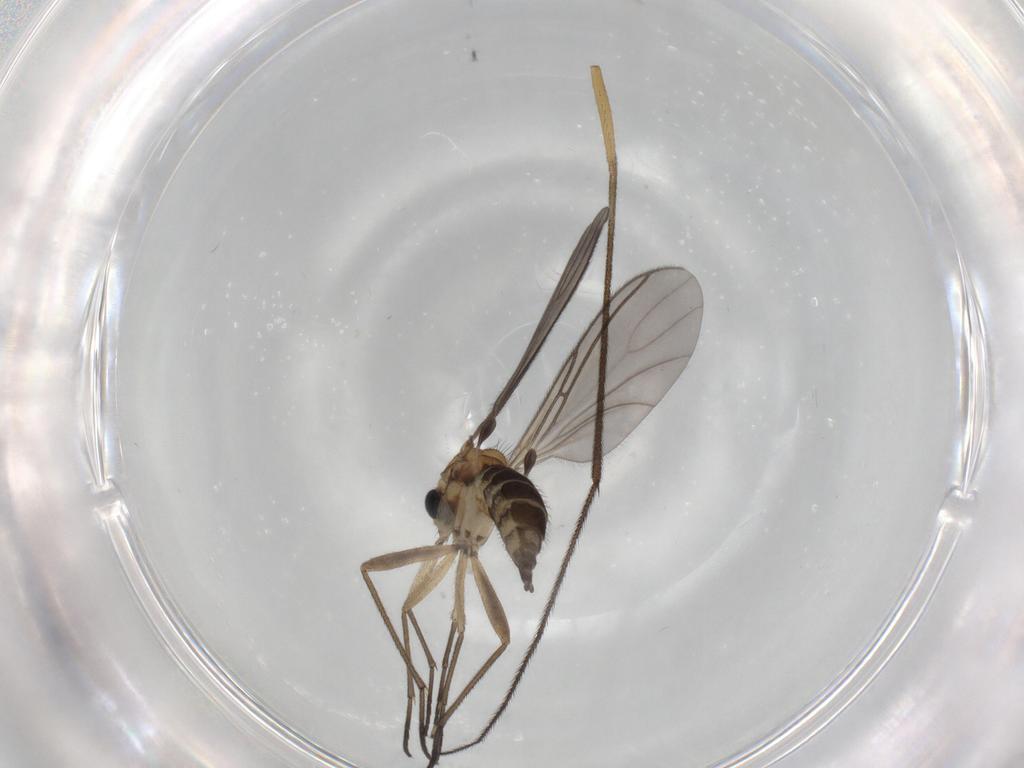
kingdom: Animalia
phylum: Arthropoda
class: Insecta
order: Diptera
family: Sciaridae
